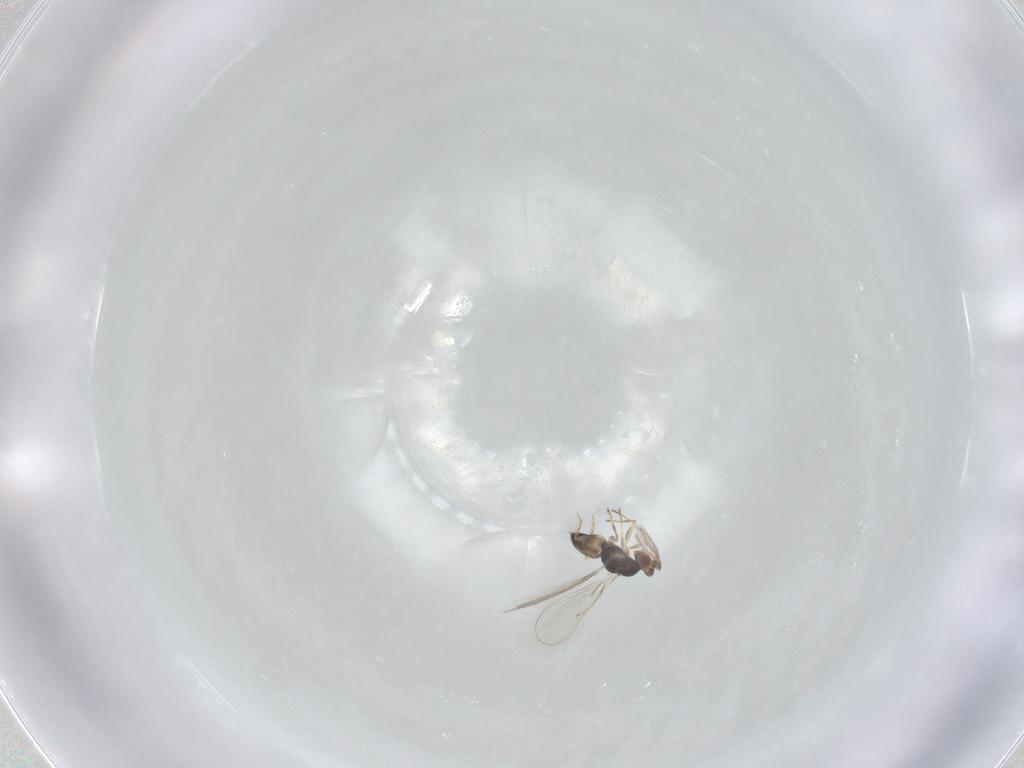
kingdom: Animalia
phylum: Arthropoda
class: Insecta
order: Hymenoptera
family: Eulophidae
